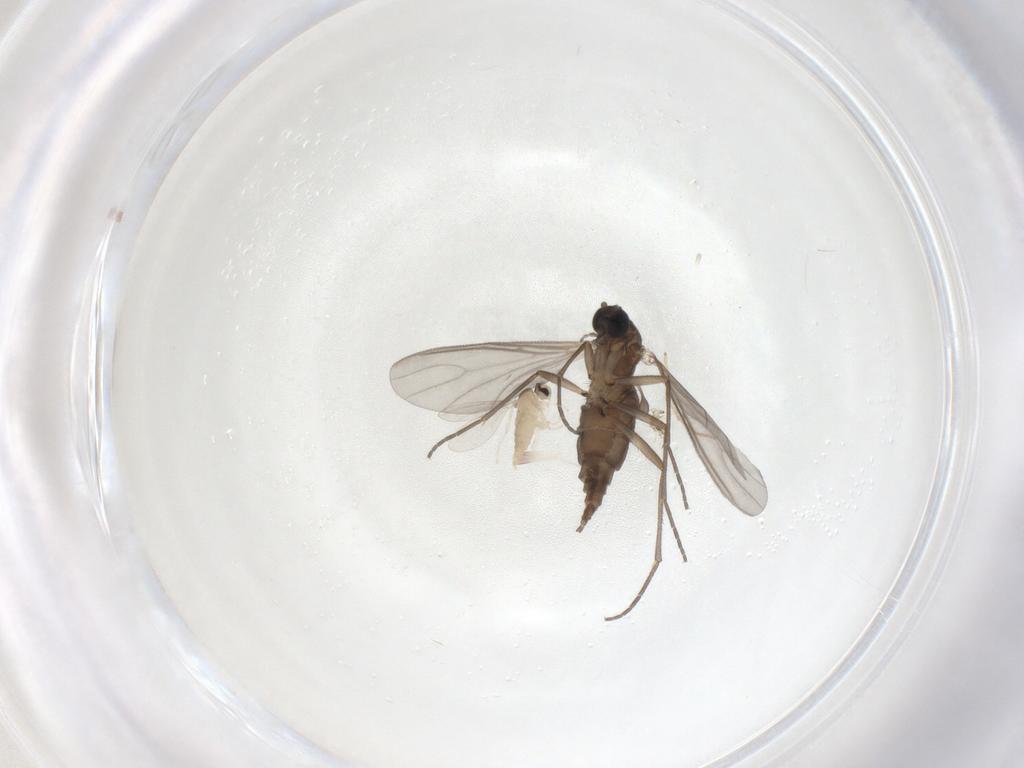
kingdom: Animalia
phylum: Arthropoda
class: Insecta
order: Diptera
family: Sciaridae
